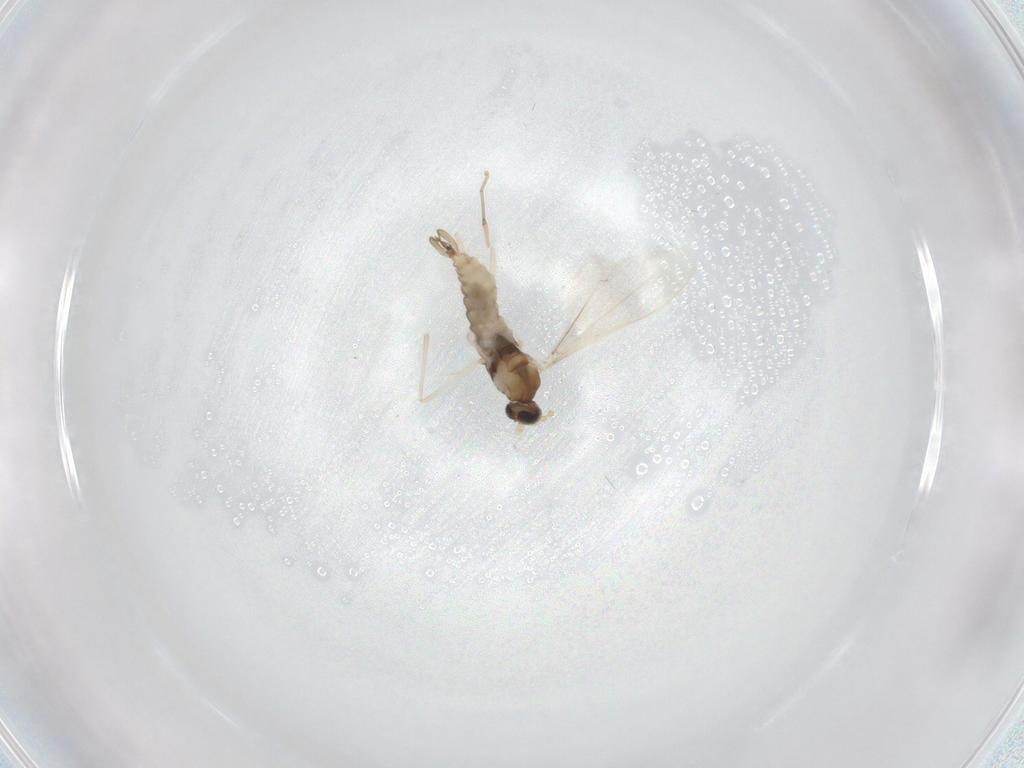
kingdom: Animalia
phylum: Arthropoda
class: Insecta
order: Diptera
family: Cecidomyiidae
